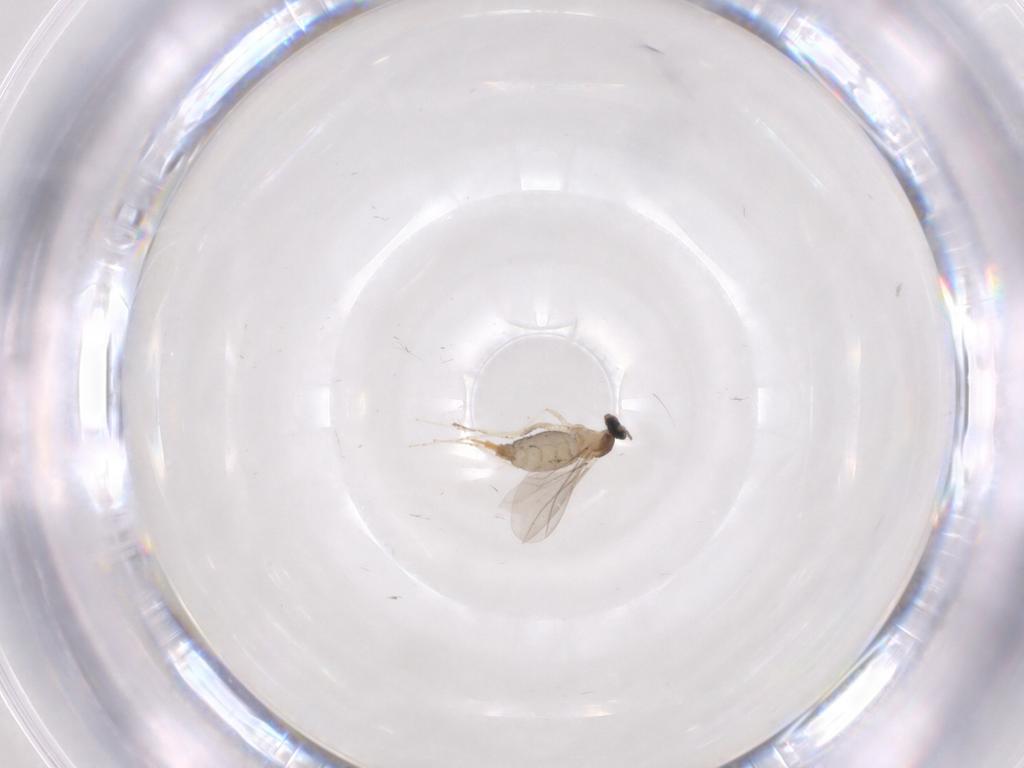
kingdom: Animalia
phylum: Arthropoda
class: Insecta
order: Diptera
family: Cecidomyiidae
